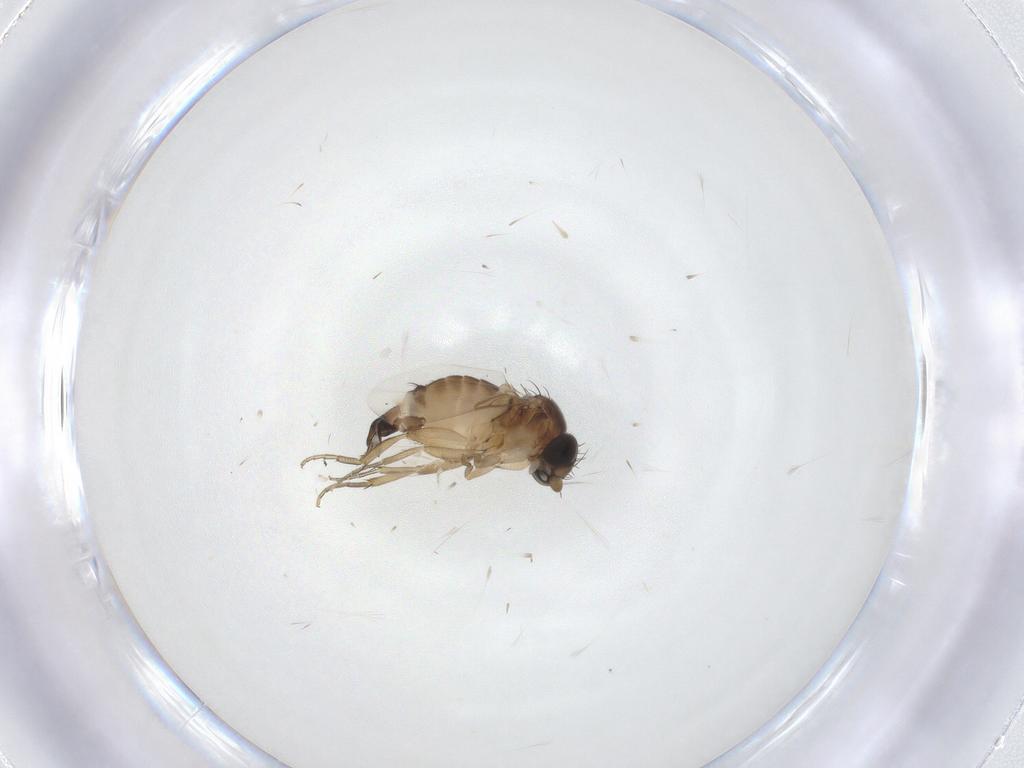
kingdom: Animalia
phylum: Arthropoda
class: Insecta
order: Diptera
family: Phoridae
